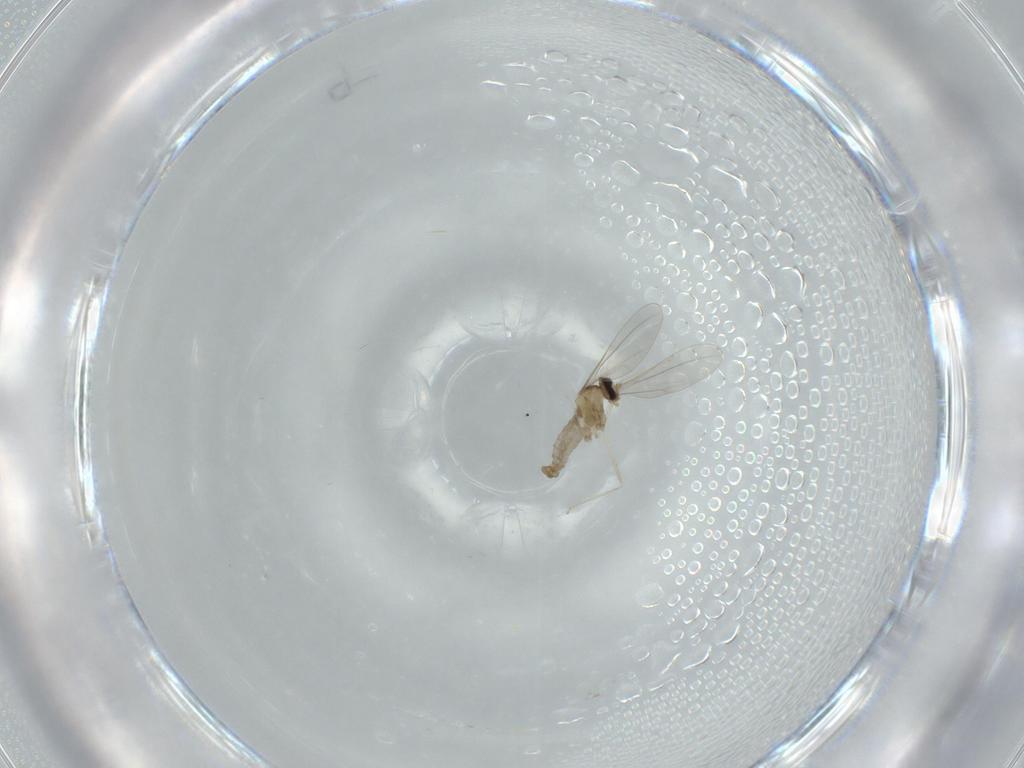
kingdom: Animalia
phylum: Arthropoda
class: Insecta
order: Diptera
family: Cecidomyiidae
